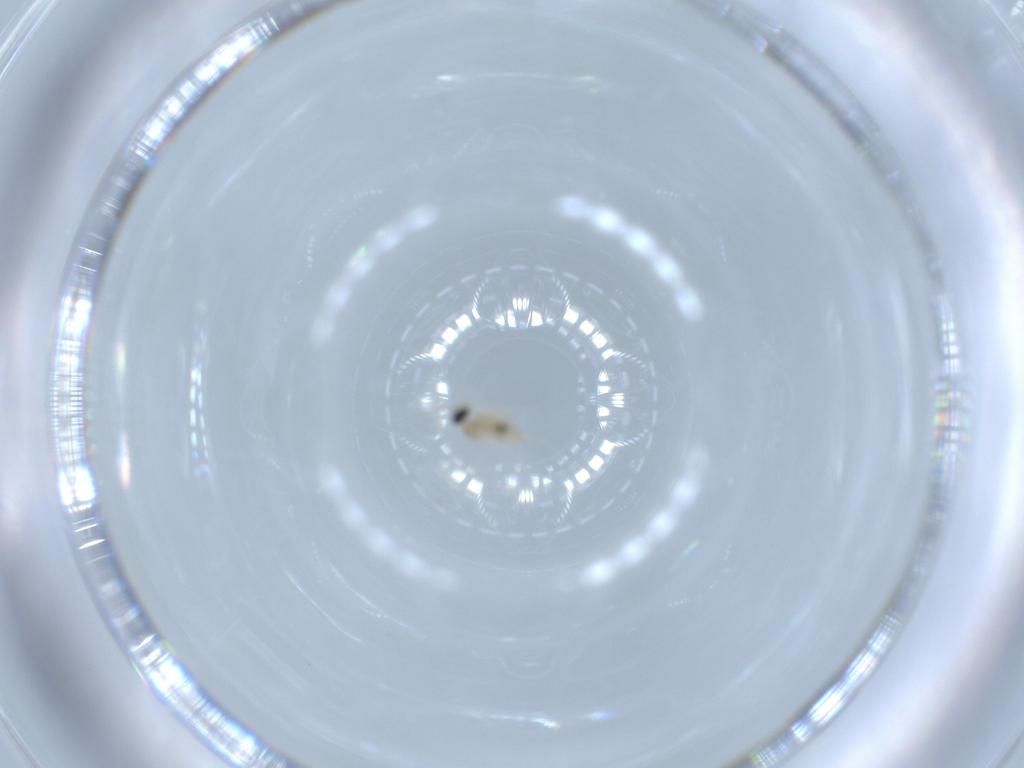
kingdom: Animalia
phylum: Arthropoda
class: Insecta
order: Diptera
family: Cecidomyiidae
